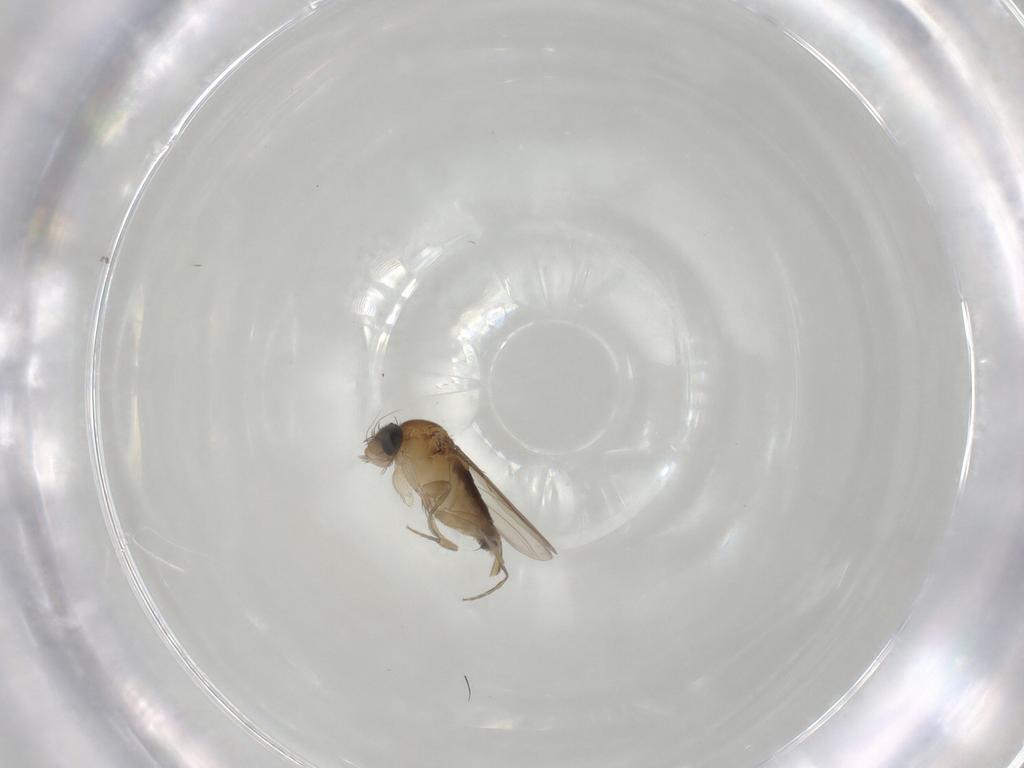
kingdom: Animalia
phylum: Arthropoda
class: Insecta
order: Diptera
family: Phoridae
